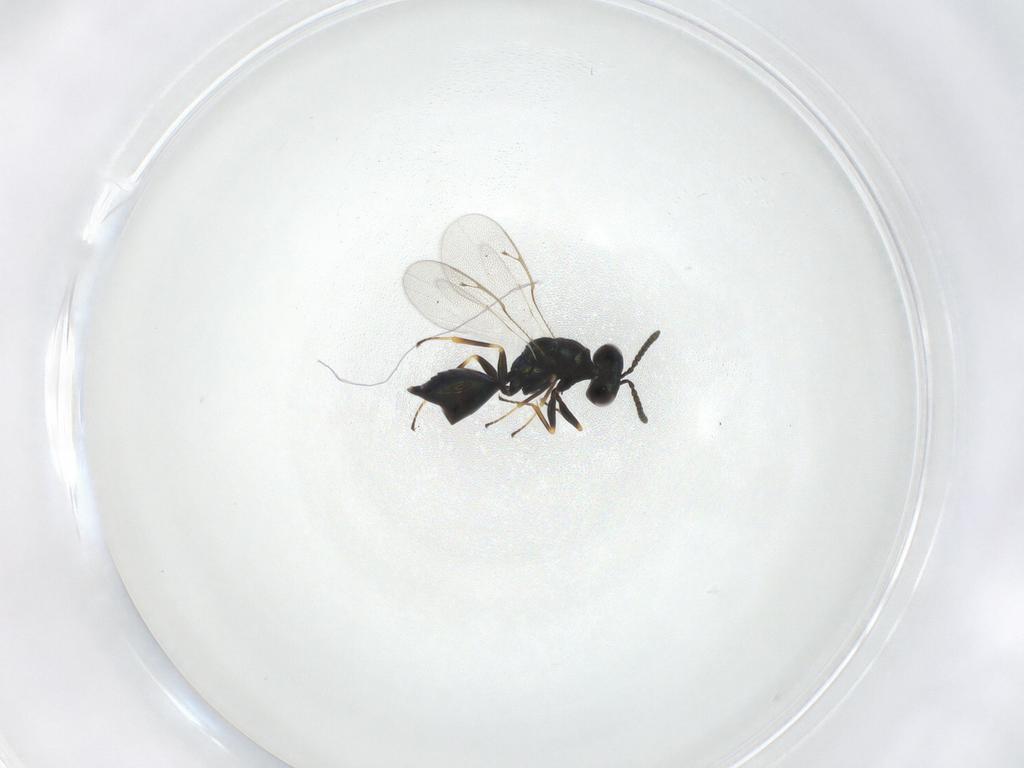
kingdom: Animalia
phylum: Arthropoda
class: Insecta
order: Hymenoptera
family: Pteromalidae
